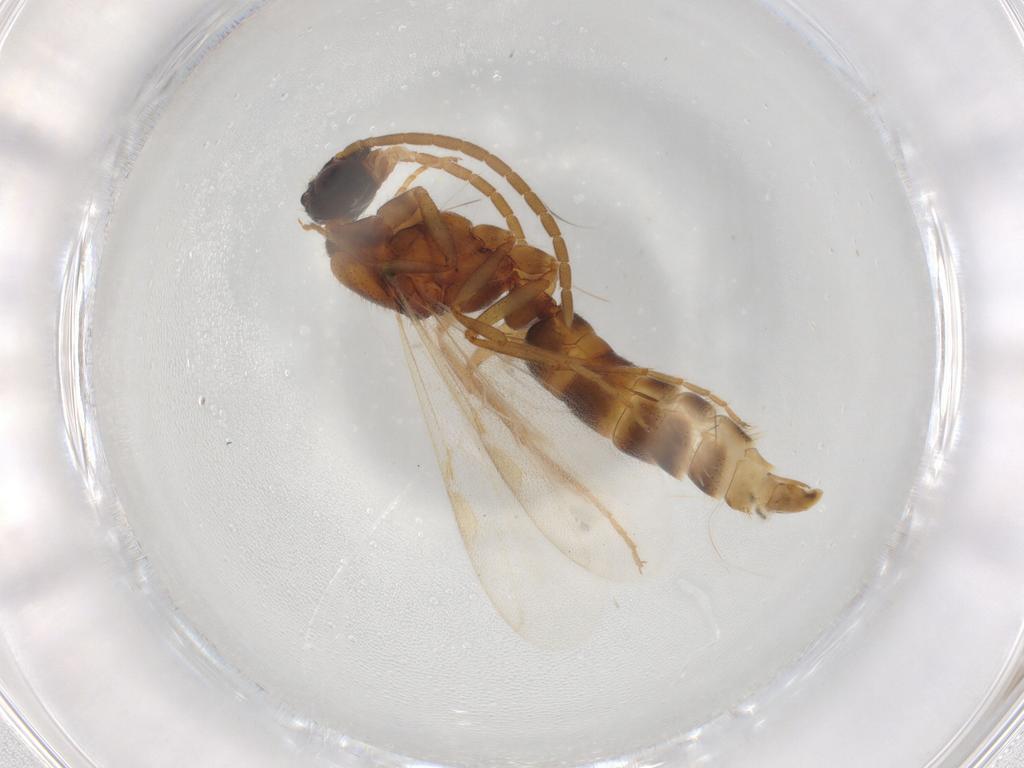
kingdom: Animalia
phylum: Arthropoda
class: Insecta
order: Hymenoptera
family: Formicidae
